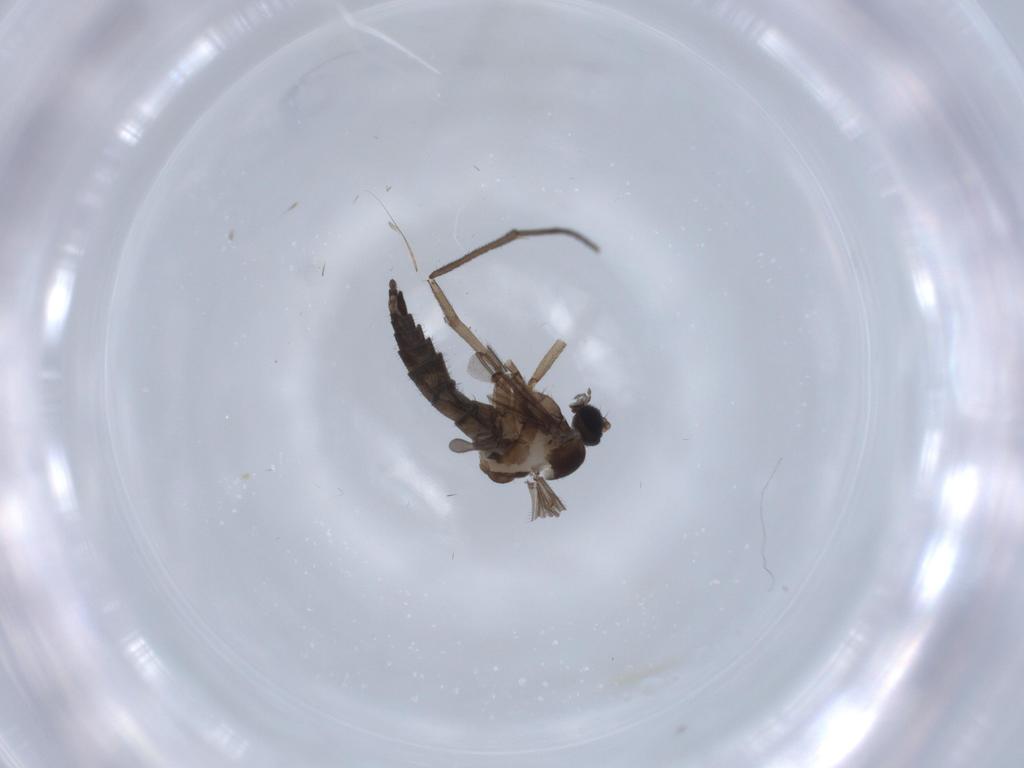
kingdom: Animalia
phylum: Arthropoda
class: Insecta
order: Diptera
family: Sciaridae
